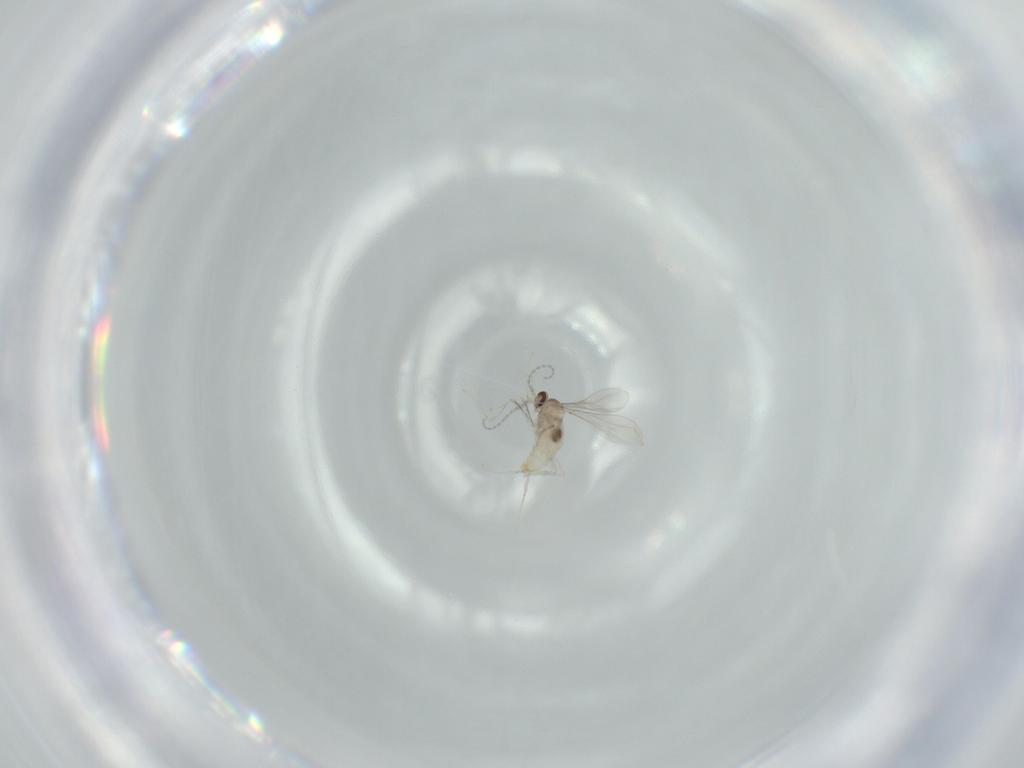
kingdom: Animalia
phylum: Arthropoda
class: Insecta
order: Diptera
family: Cecidomyiidae
